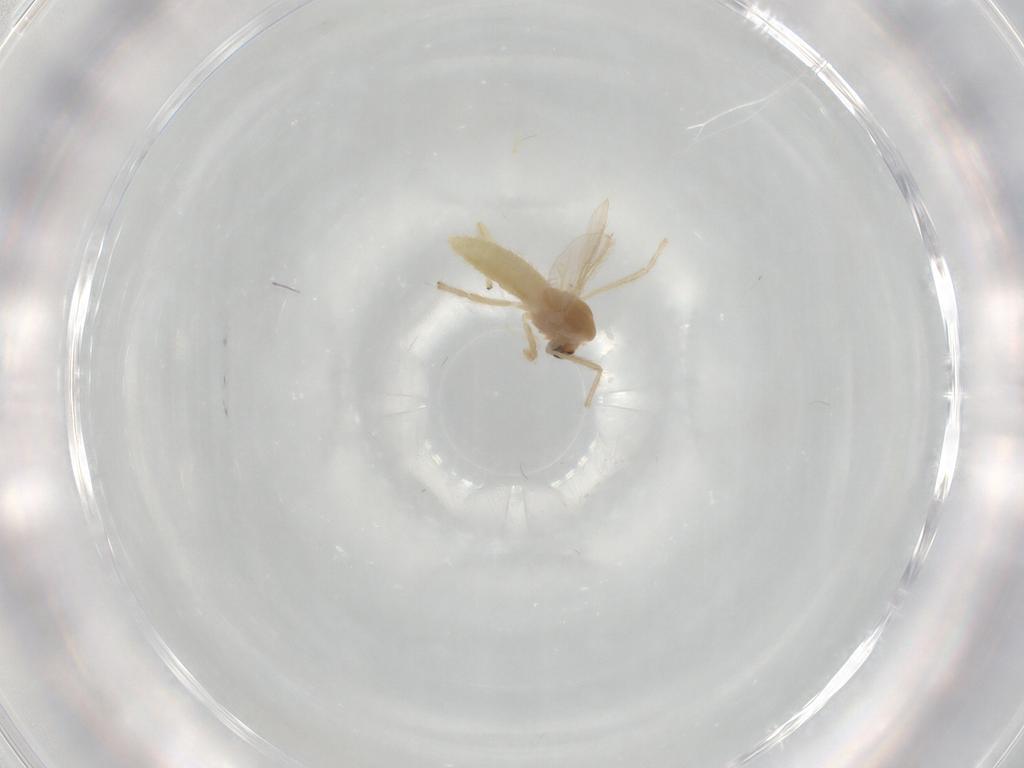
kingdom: Animalia
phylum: Arthropoda
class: Insecta
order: Diptera
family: Chironomidae
